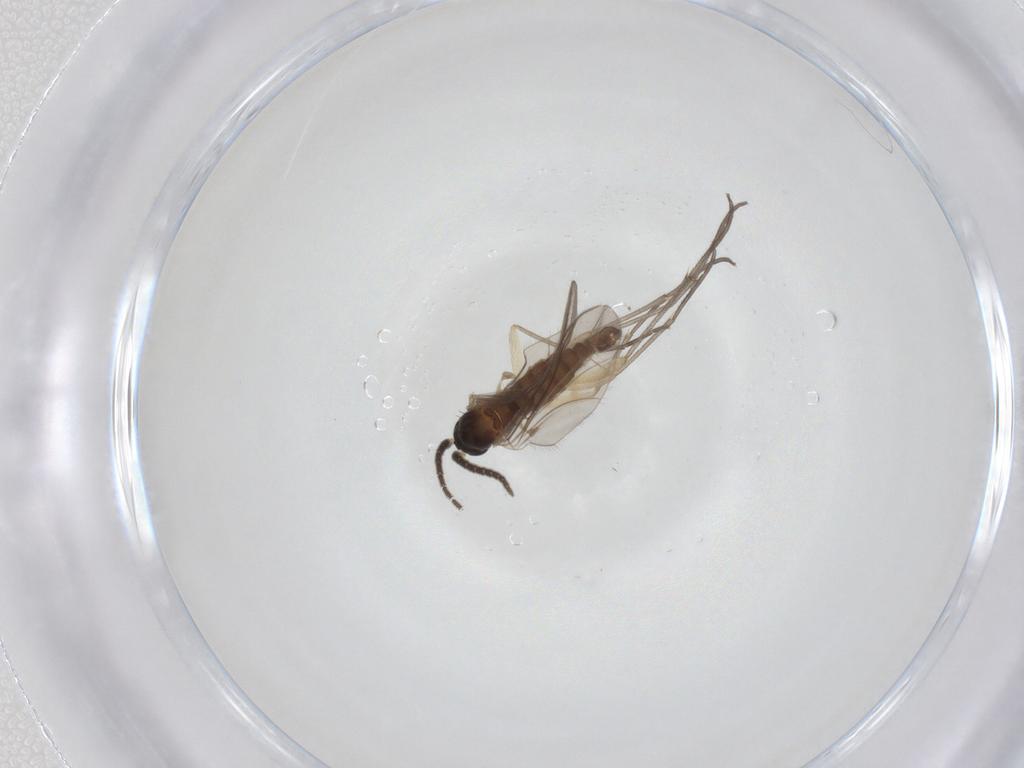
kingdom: Animalia
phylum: Arthropoda
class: Insecta
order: Diptera
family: Sciaridae
